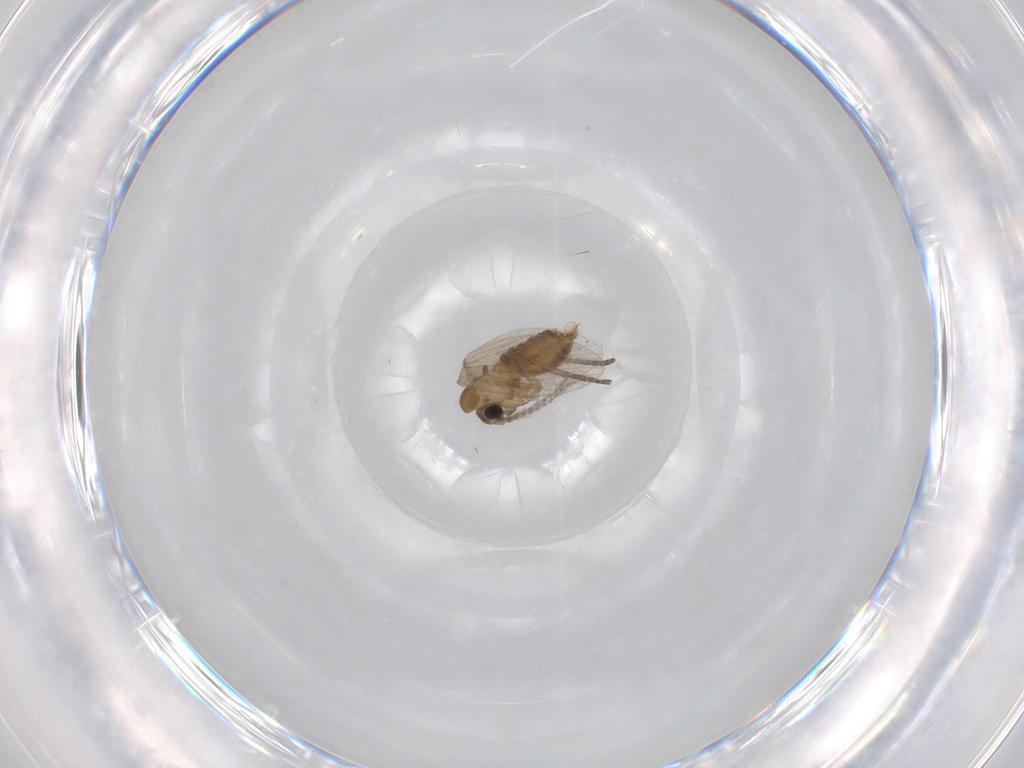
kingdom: Animalia
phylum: Arthropoda
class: Insecta
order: Diptera
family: Psychodidae
